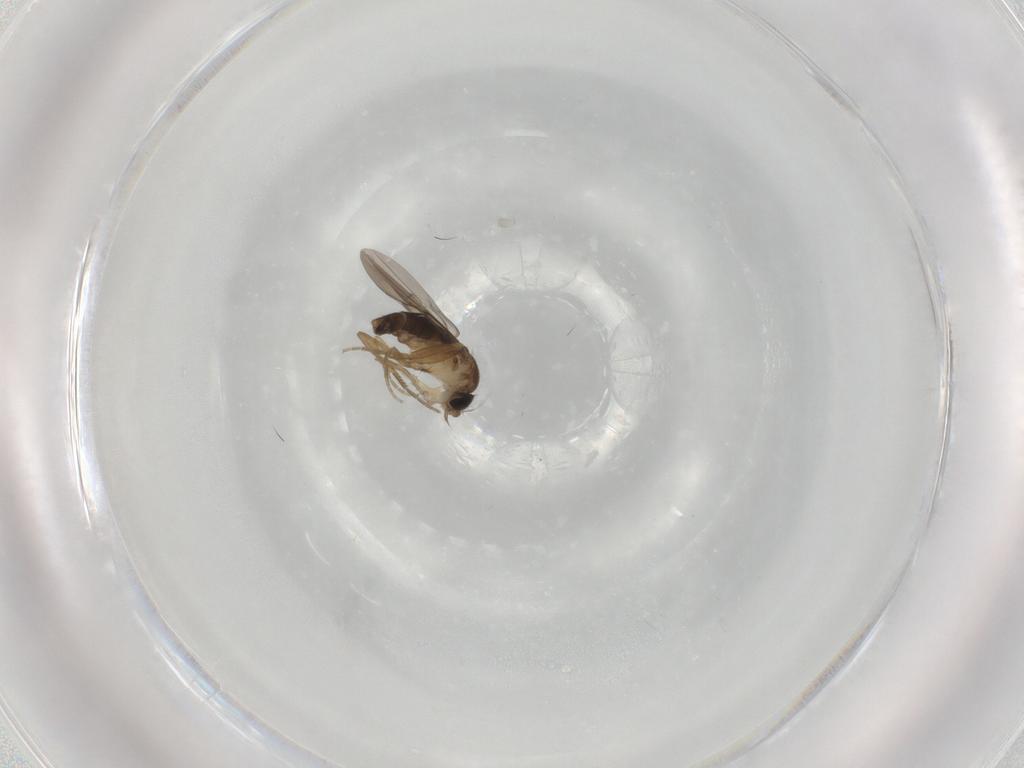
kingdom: Animalia
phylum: Arthropoda
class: Insecta
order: Diptera
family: Phoridae
